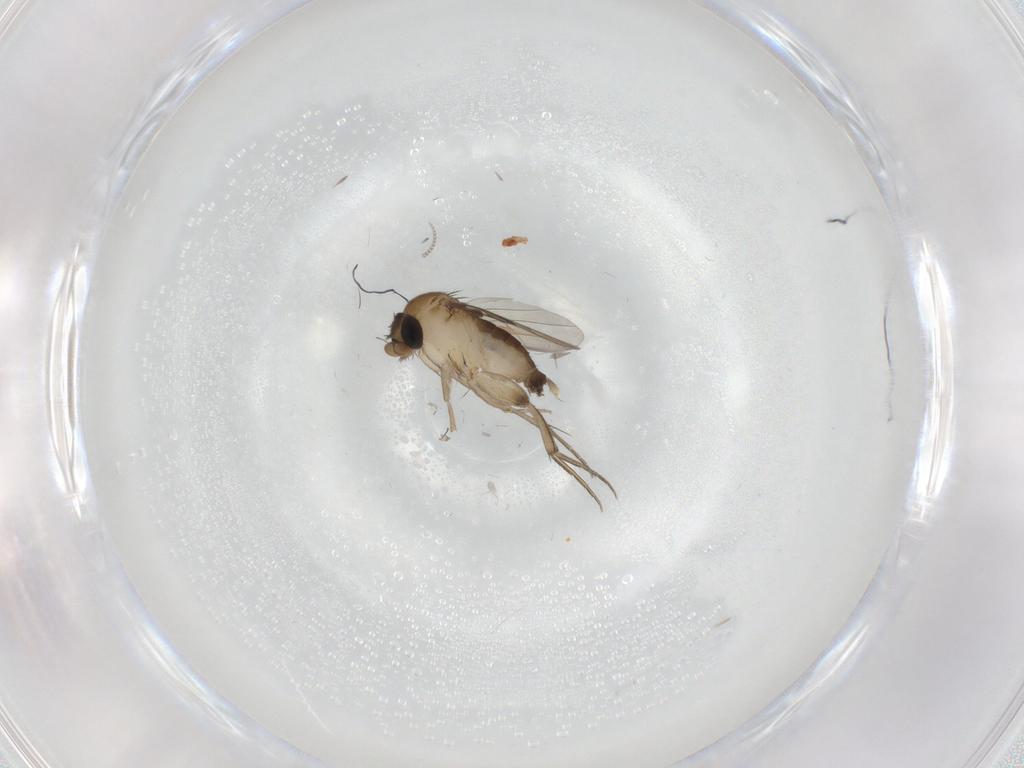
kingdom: Animalia
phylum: Arthropoda
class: Insecta
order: Diptera
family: Phoridae
